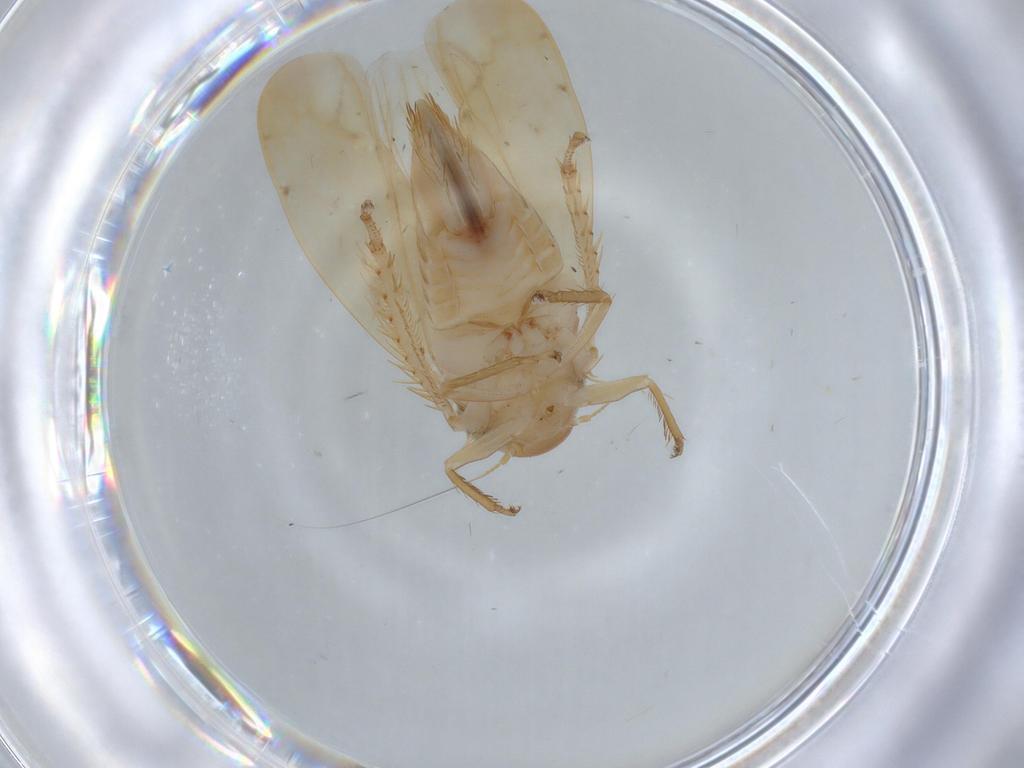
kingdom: Animalia
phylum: Arthropoda
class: Insecta
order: Hemiptera
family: Cicadellidae
